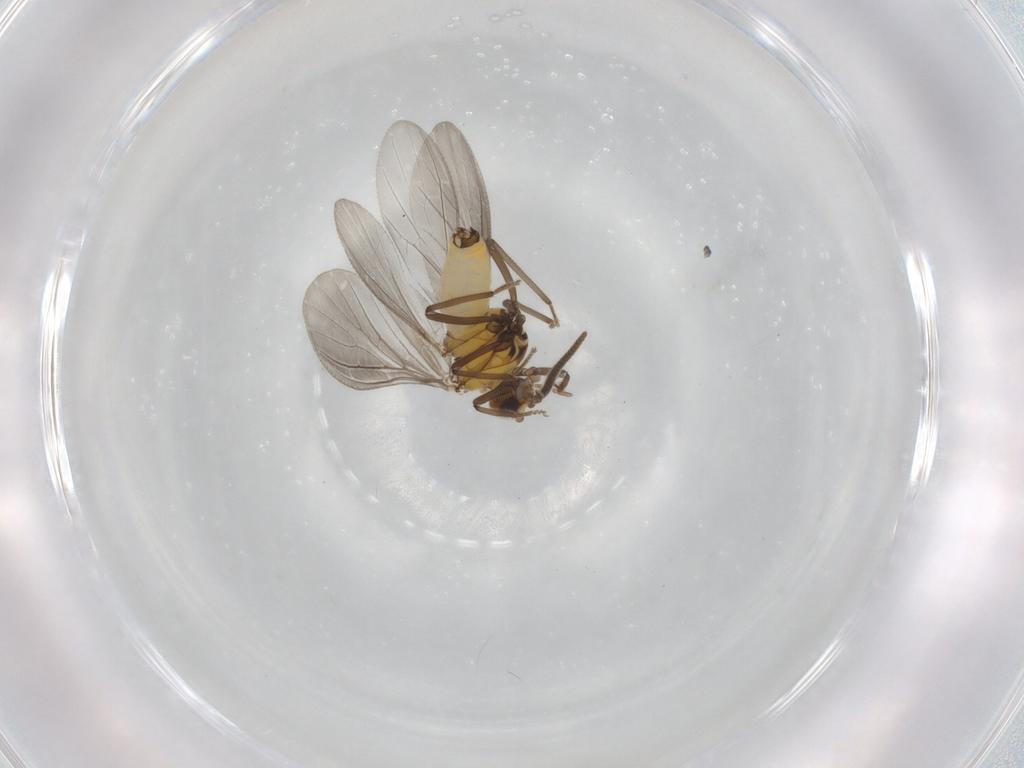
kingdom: Animalia
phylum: Arthropoda
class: Insecta
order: Neuroptera
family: Coniopterygidae
